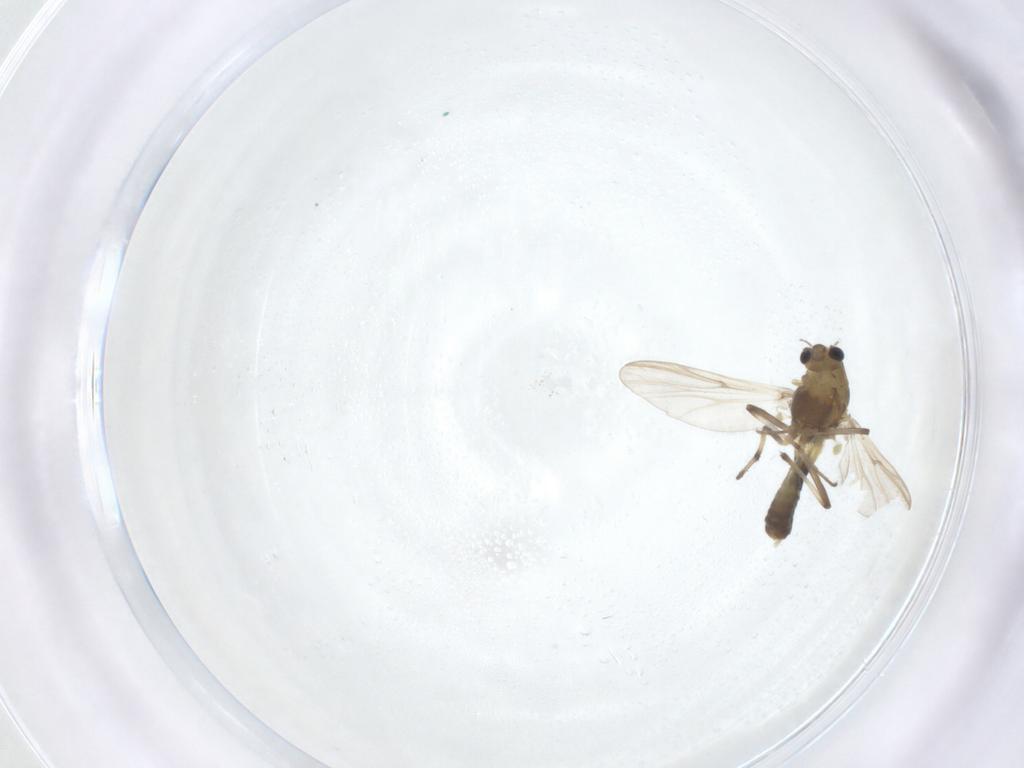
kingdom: Animalia
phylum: Arthropoda
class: Insecta
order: Diptera
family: Chironomidae
